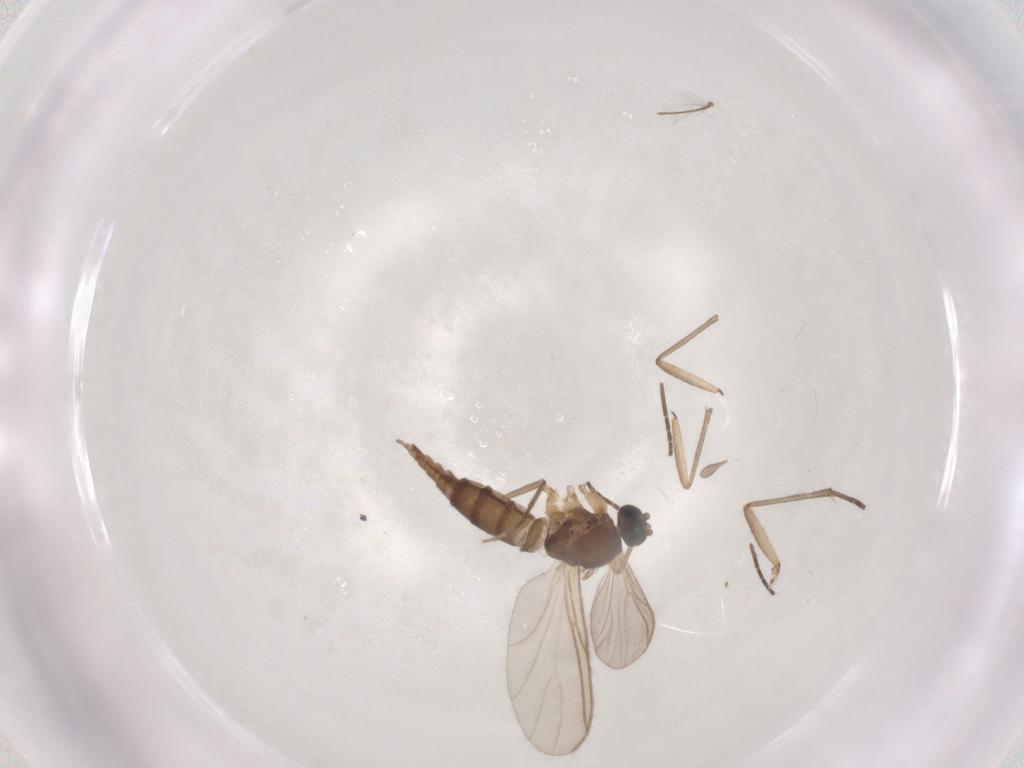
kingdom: Animalia
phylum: Arthropoda
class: Insecta
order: Diptera
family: Sciaridae
